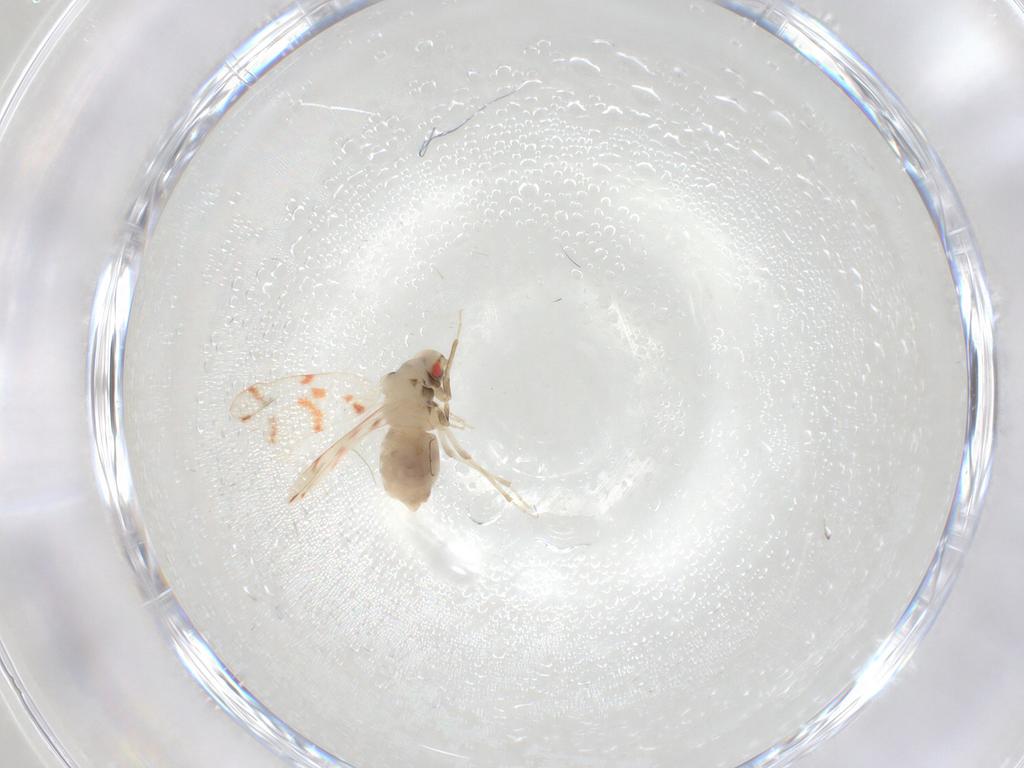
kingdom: Animalia
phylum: Arthropoda
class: Insecta
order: Hemiptera
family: Aleyrodidae
